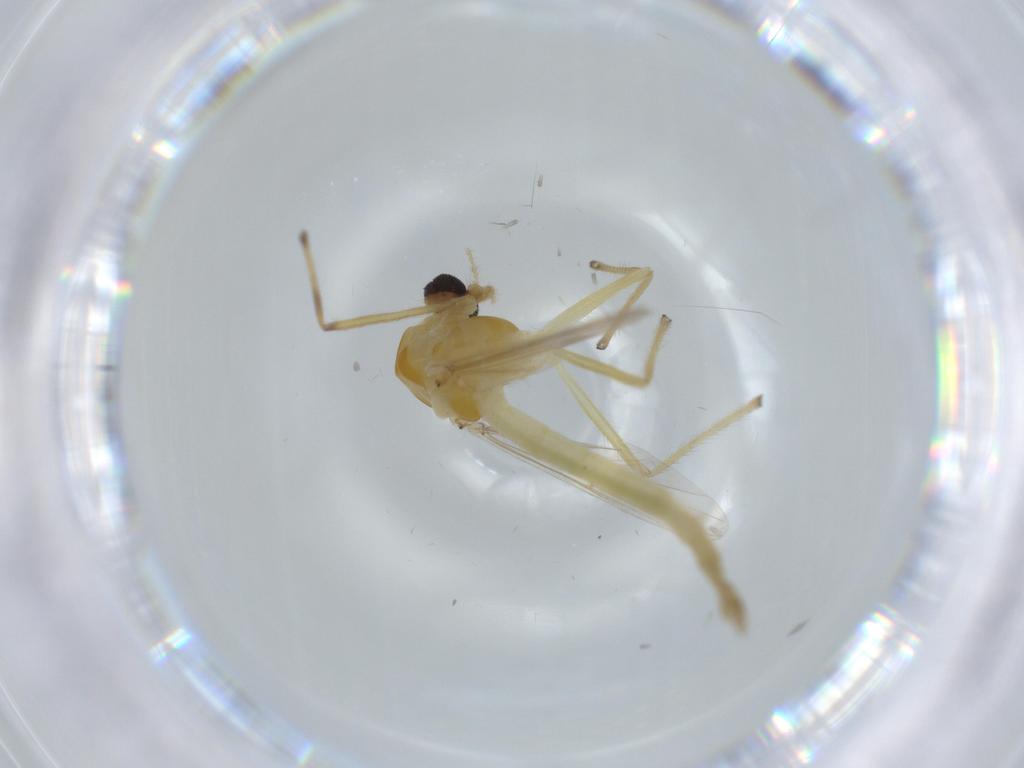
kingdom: Animalia
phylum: Arthropoda
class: Insecta
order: Diptera
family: Chironomidae
